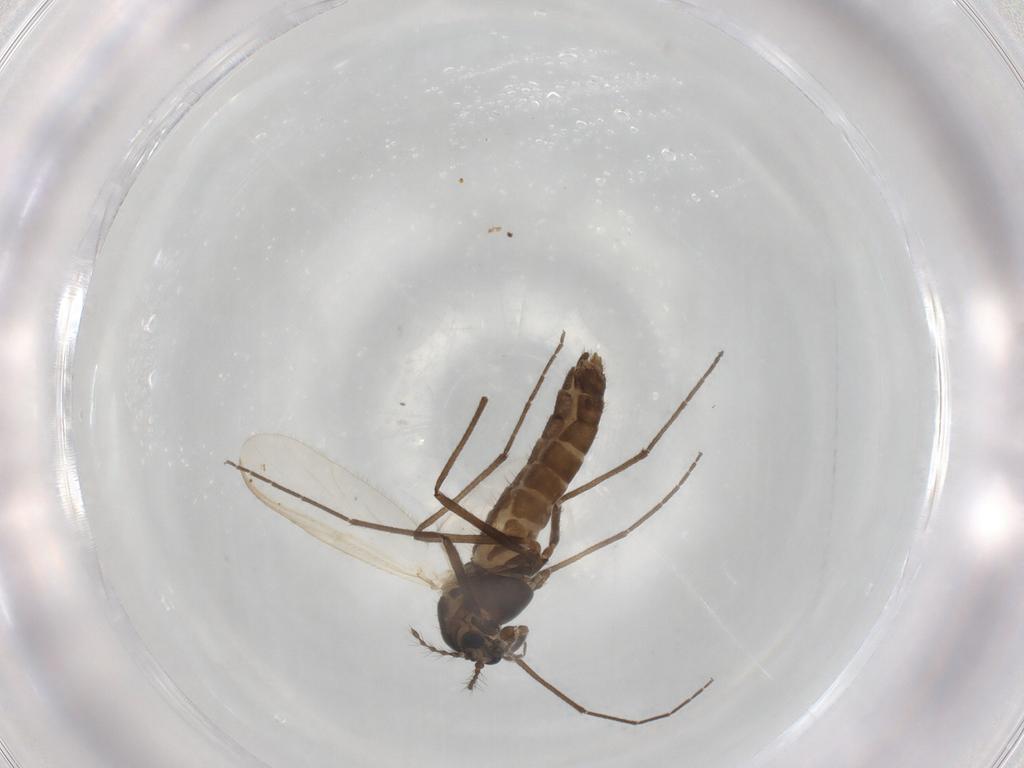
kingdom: Animalia
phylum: Arthropoda
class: Insecta
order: Diptera
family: Chironomidae
